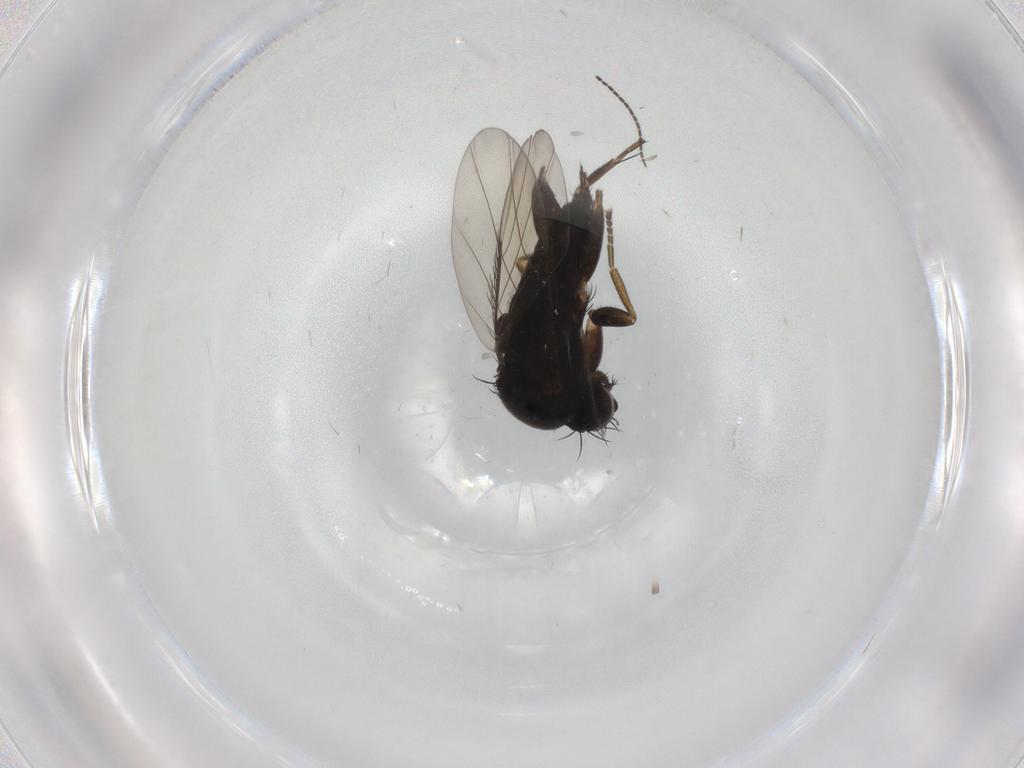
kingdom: Animalia
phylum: Arthropoda
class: Insecta
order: Diptera
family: Phoridae
